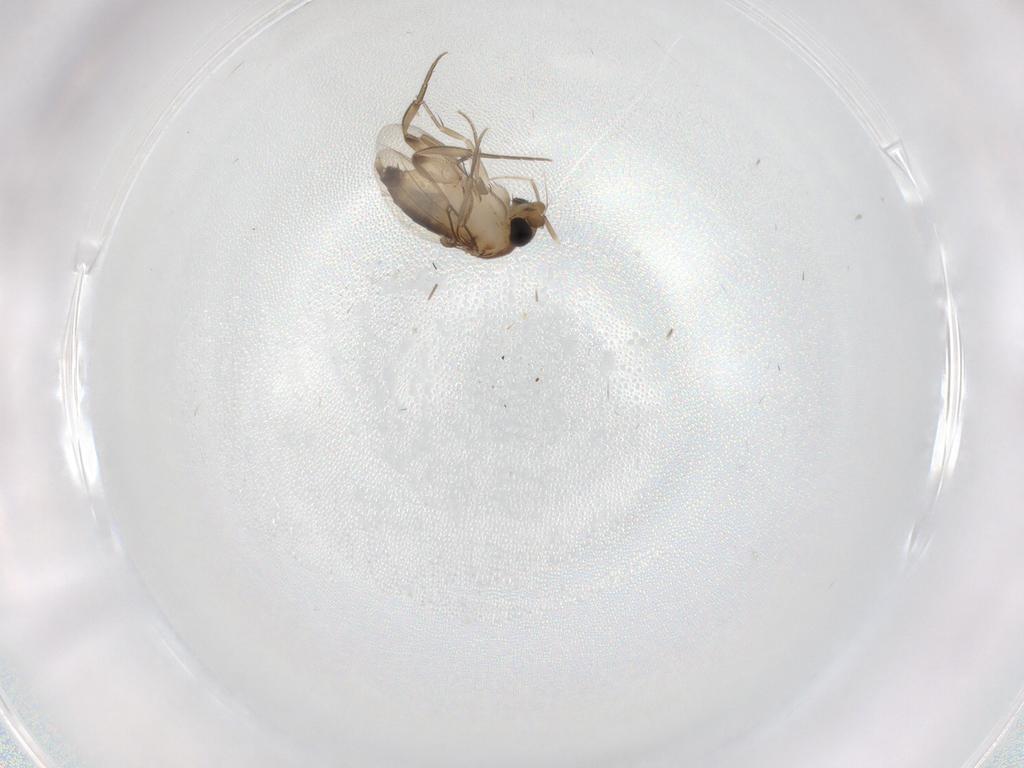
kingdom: Animalia
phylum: Arthropoda
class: Insecta
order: Diptera
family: Phoridae
